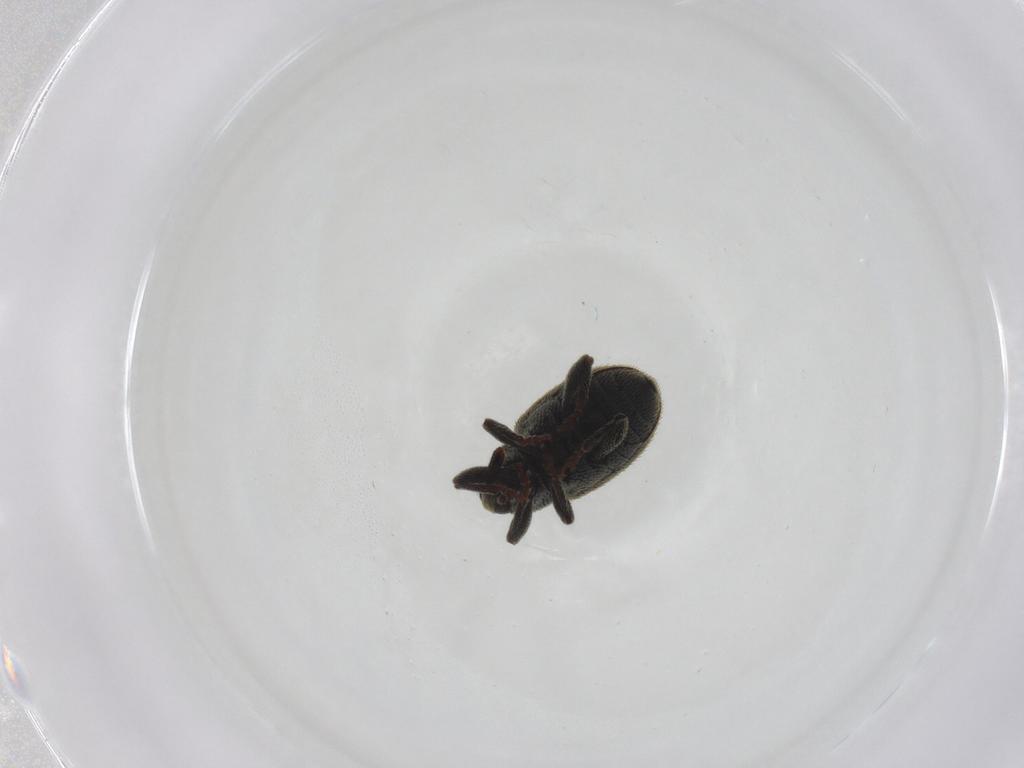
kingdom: Animalia
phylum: Arthropoda
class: Insecta
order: Coleoptera
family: Curculionidae
